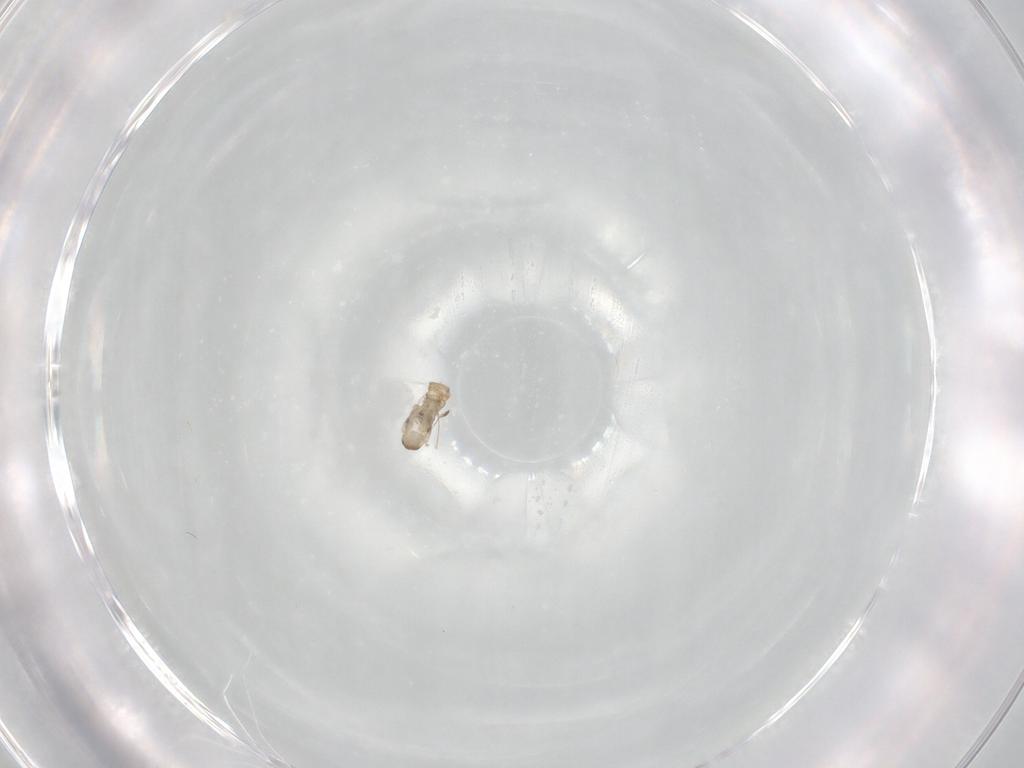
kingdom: Animalia
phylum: Arthropoda
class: Insecta
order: Diptera
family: Cecidomyiidae
